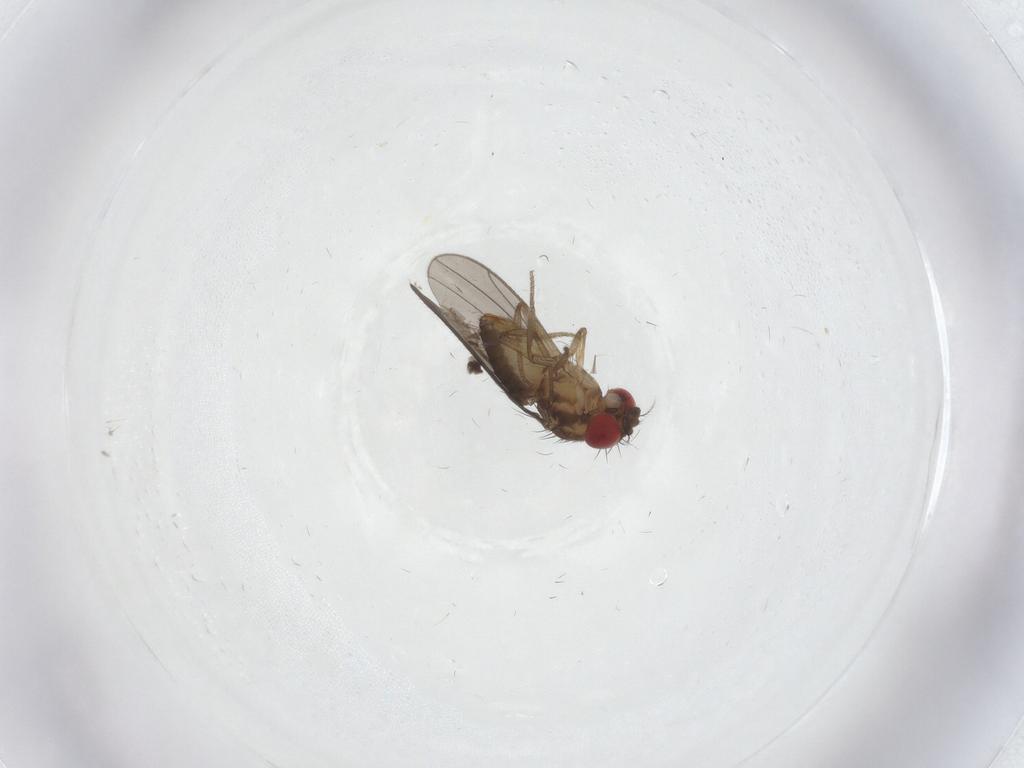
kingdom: Animalia
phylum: Arthropoda
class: Insecta
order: Diptera
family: Drosophilidae
